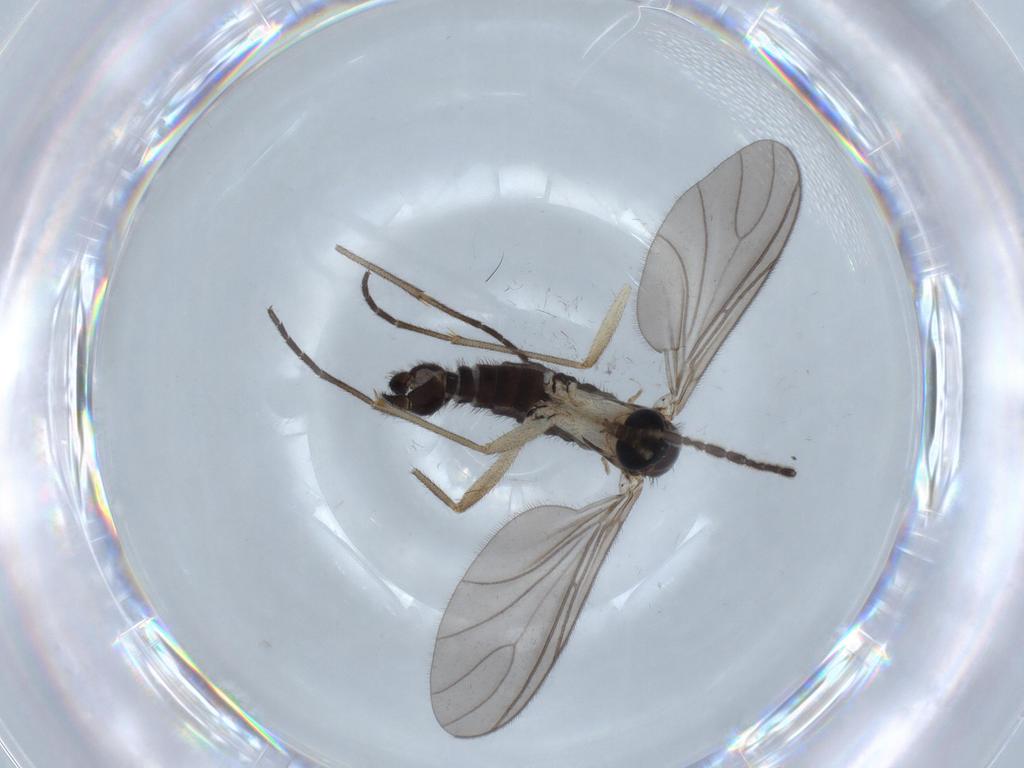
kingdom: Animalia
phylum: Arthropoda
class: Insecta
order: Diptera
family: Sciaridae
